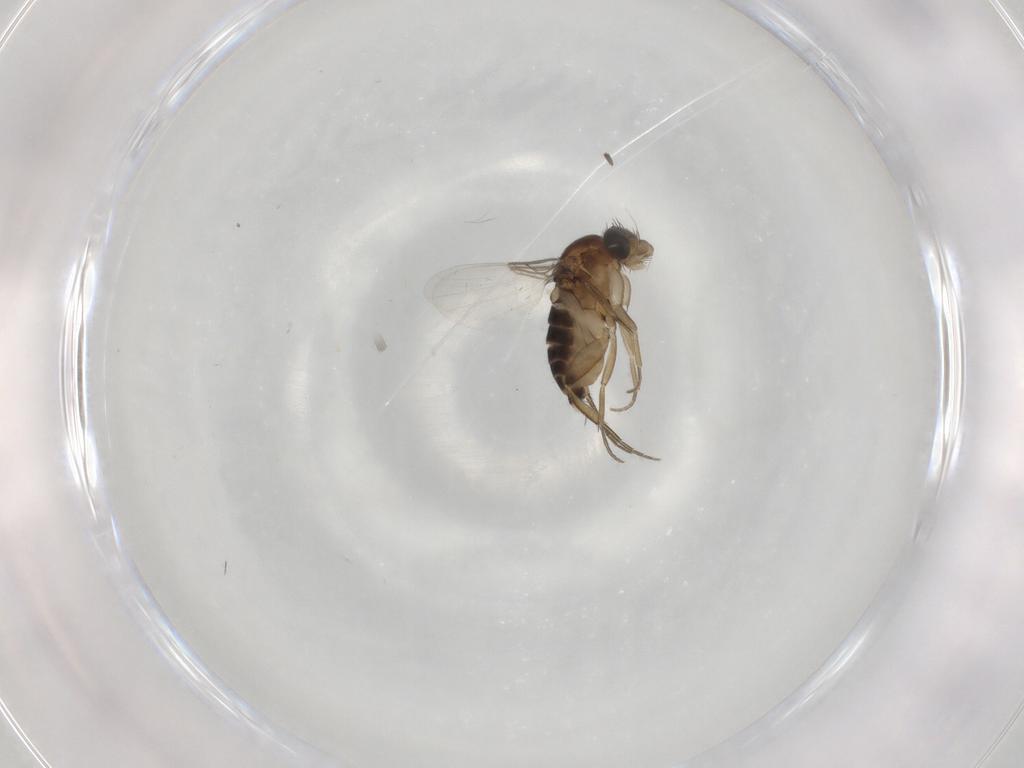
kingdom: Animalia
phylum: Arthropoda
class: Insecta
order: Diptera
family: Phoridae
